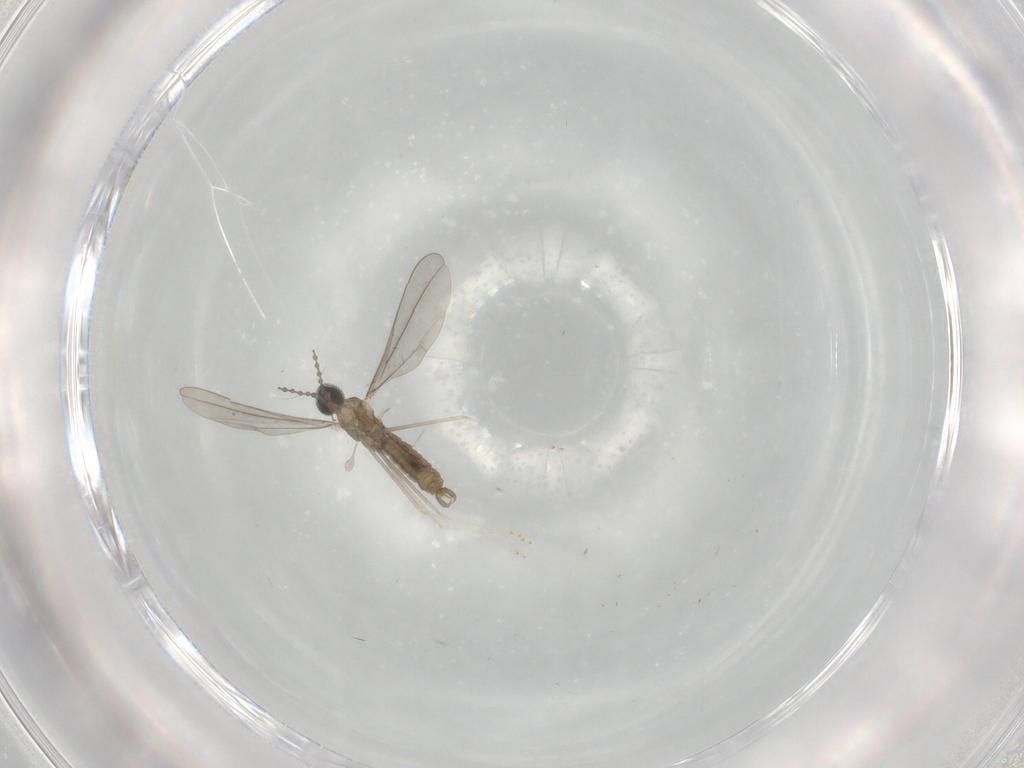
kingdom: Animalia
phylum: Arthropoda
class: Insecta
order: Diptera
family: Cecidomyiidae
